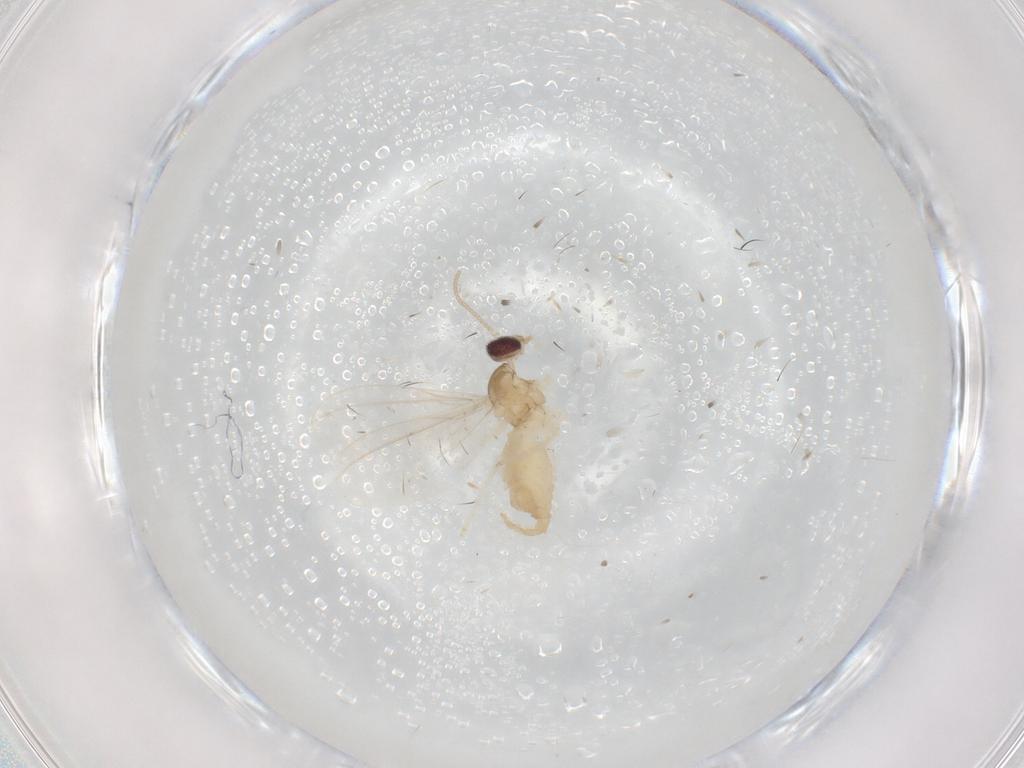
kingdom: Animalia
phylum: Arthropoda
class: Insecta
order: Diptera
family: Cecidomyiidae
